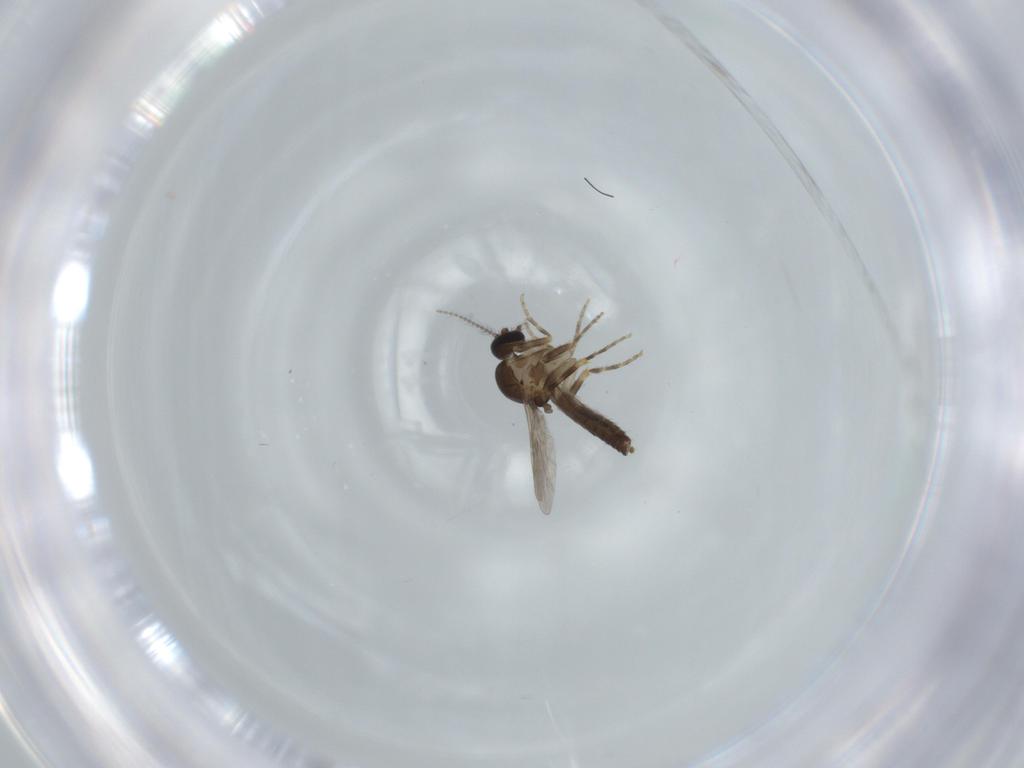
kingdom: Animalia
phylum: Arthropoda
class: Insecta
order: Diptera
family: Ceratopogonidae
